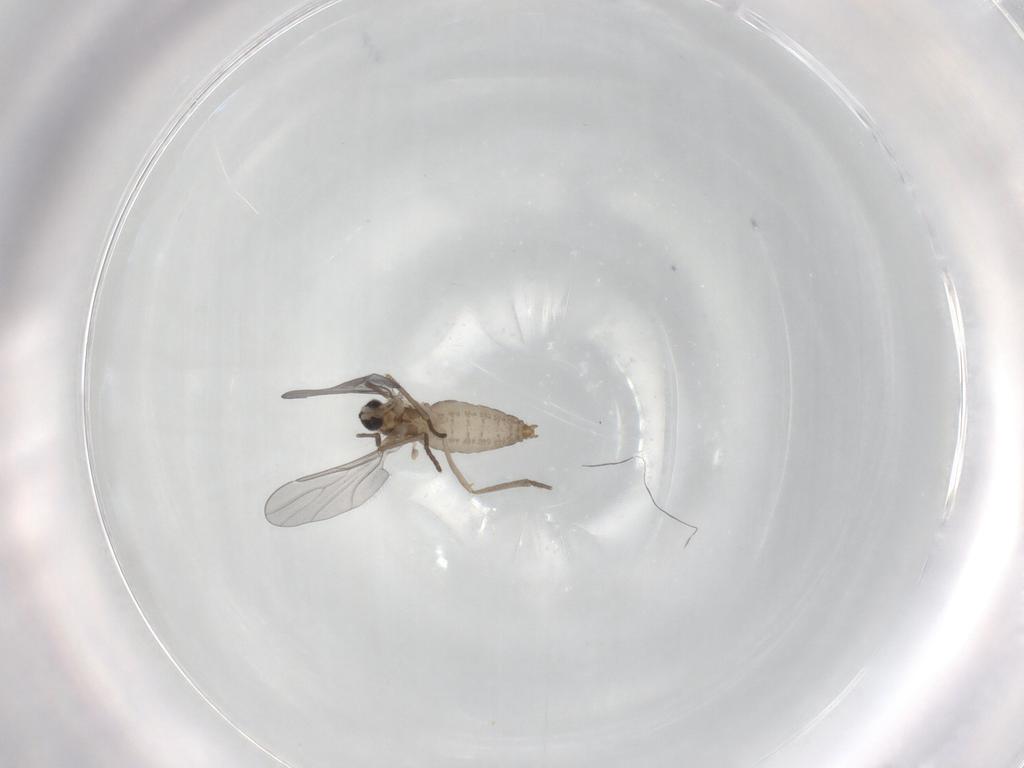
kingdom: Animalia
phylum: Arthropoda
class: Insecta
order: Diptera
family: Cecidomyiidae
